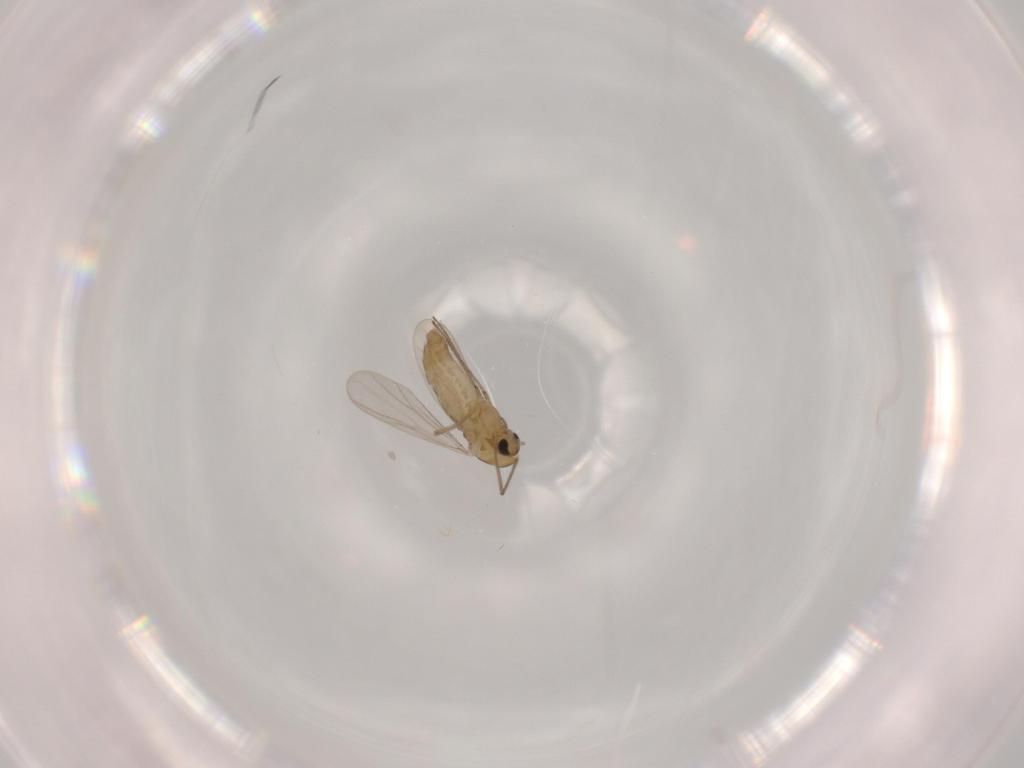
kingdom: Animalia
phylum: Arthropoda
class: Insecta
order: Diptera
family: Chironomidae
